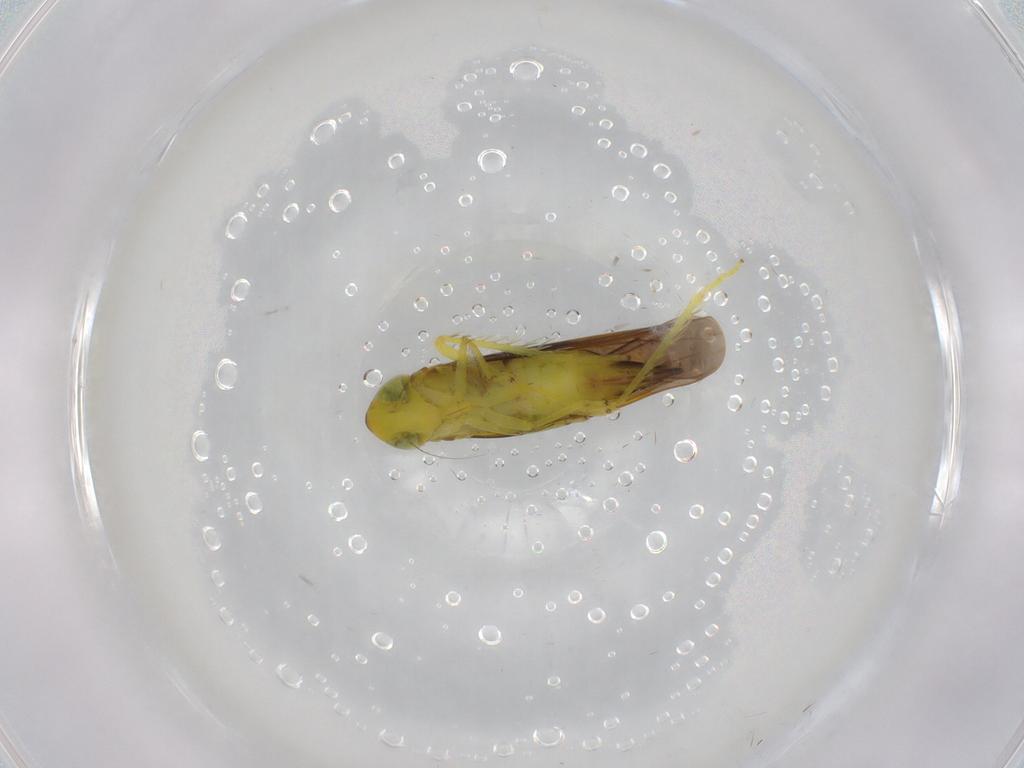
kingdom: Animalia
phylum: Arthropoda
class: Insecta
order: Hemiptera
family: Cicadellidae
